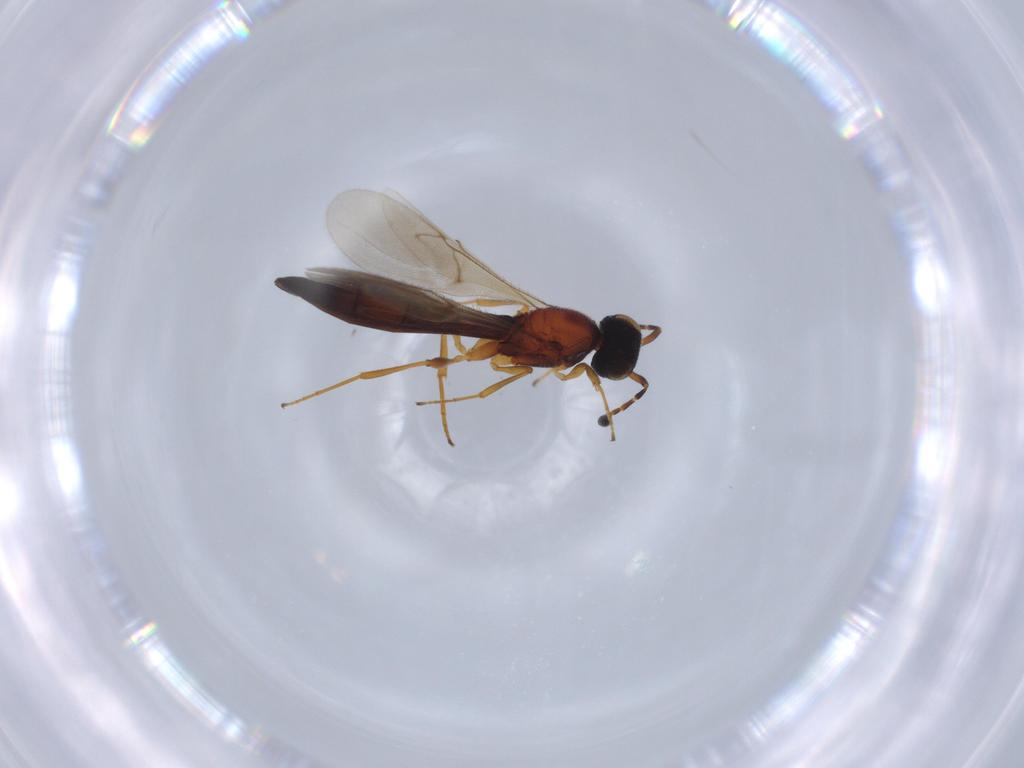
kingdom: Animalia
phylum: Arthropoda
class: Insecta
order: Hymenoptera
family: Scelionidae
